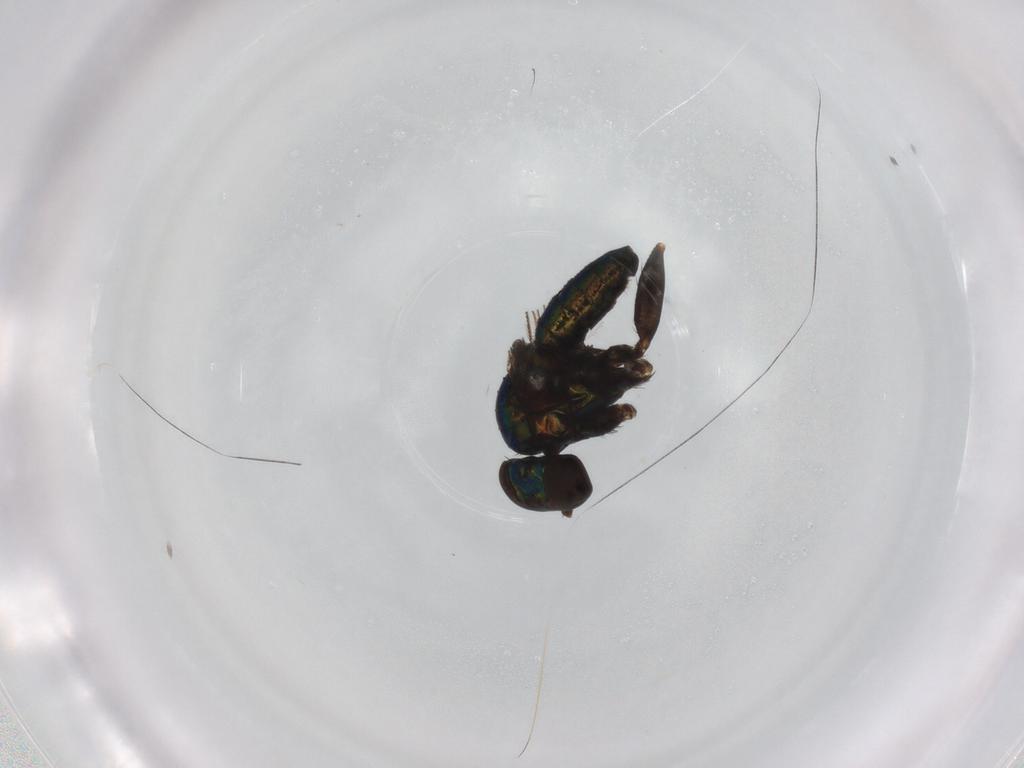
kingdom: Animalia
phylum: Arthropoda
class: Insecta
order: Diptera
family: Dolichopodidae
